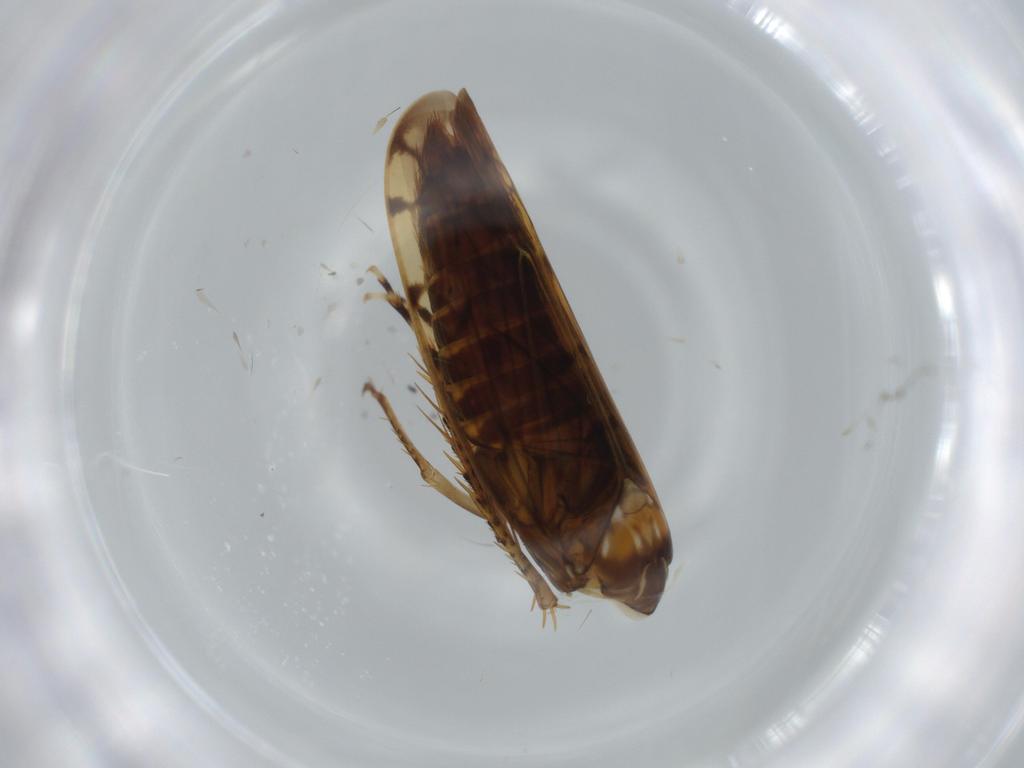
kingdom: Animalia
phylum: Arthropoda
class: Insecta
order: Hemiptera
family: Cicadellidae
